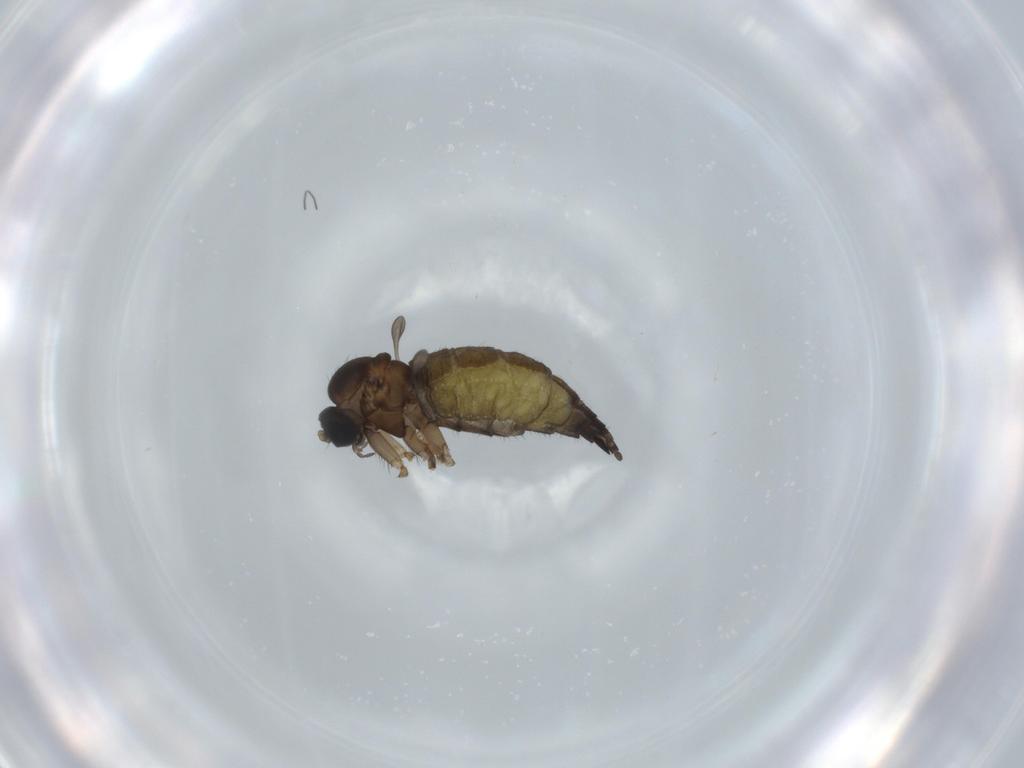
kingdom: Animalia
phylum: Arthropoda
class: Insecta
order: Diptera
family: Sciaridae
